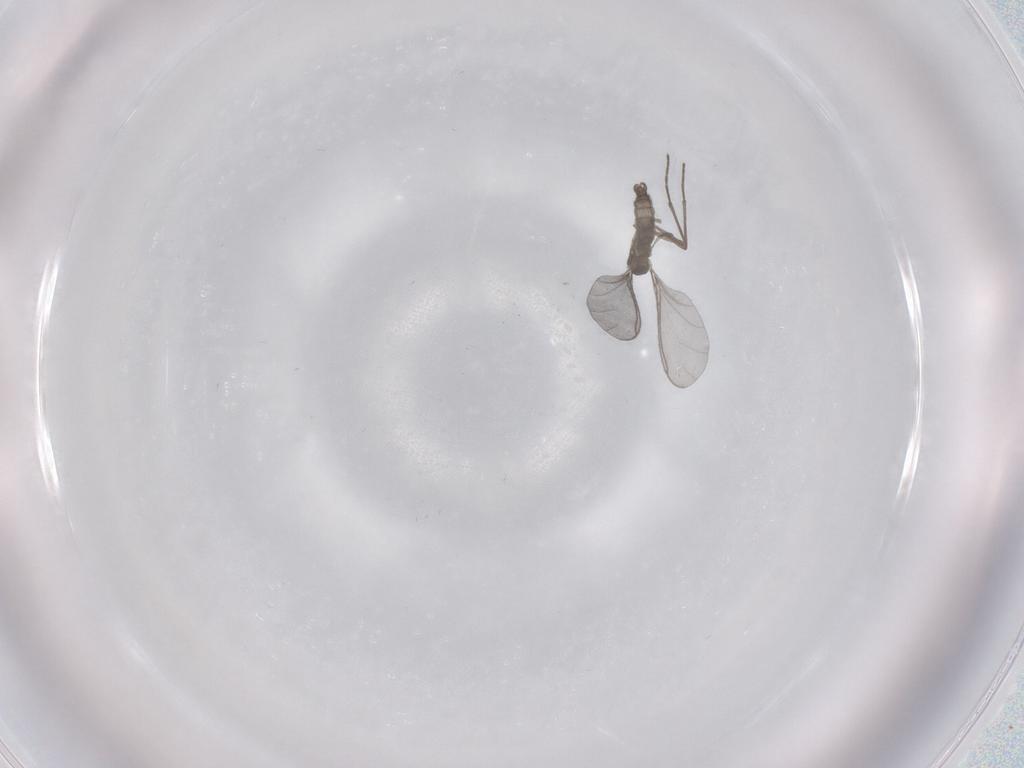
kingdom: Animalia
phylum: Arthropoda
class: Insecta
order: Diptera
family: Sciaridae
